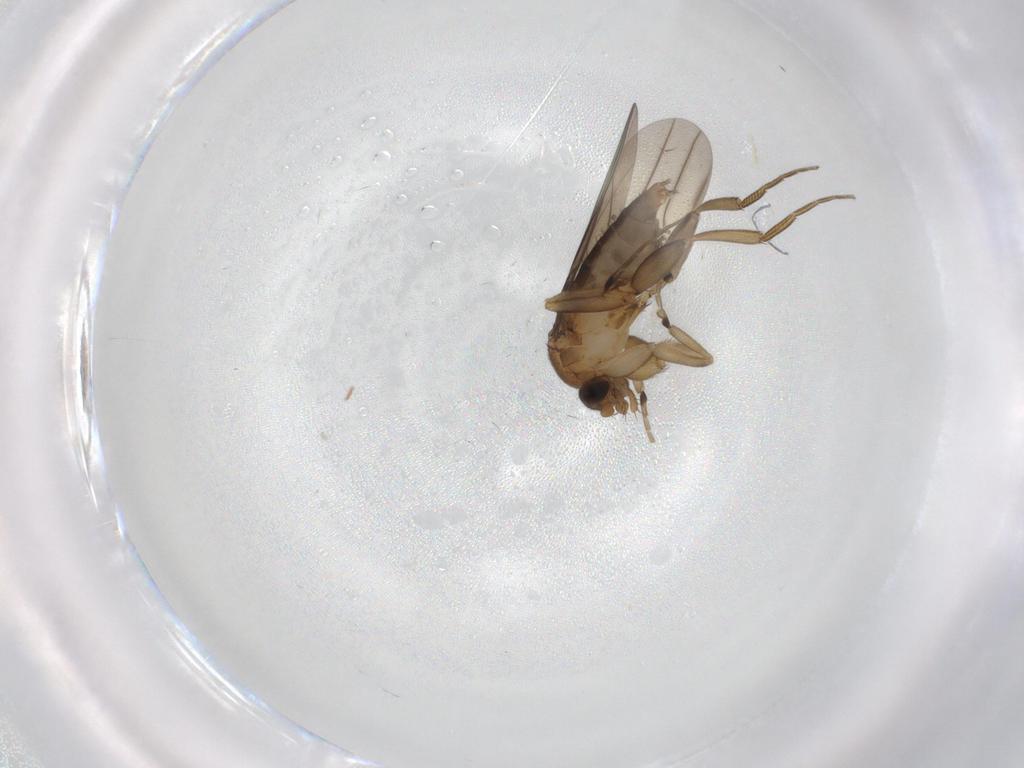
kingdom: Animalia
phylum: Arthropoda
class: Insecta
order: Diptera
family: Phoridae
